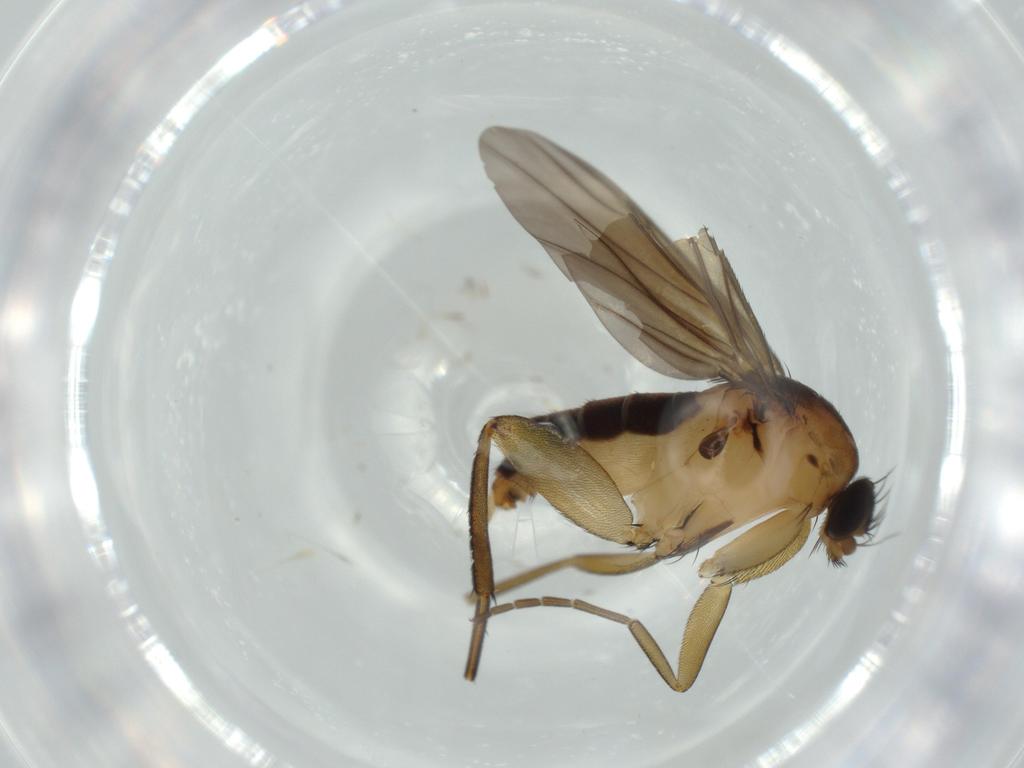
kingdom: Animalia
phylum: Arthropoda
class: Insecta
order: Diptera
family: Phoridae
